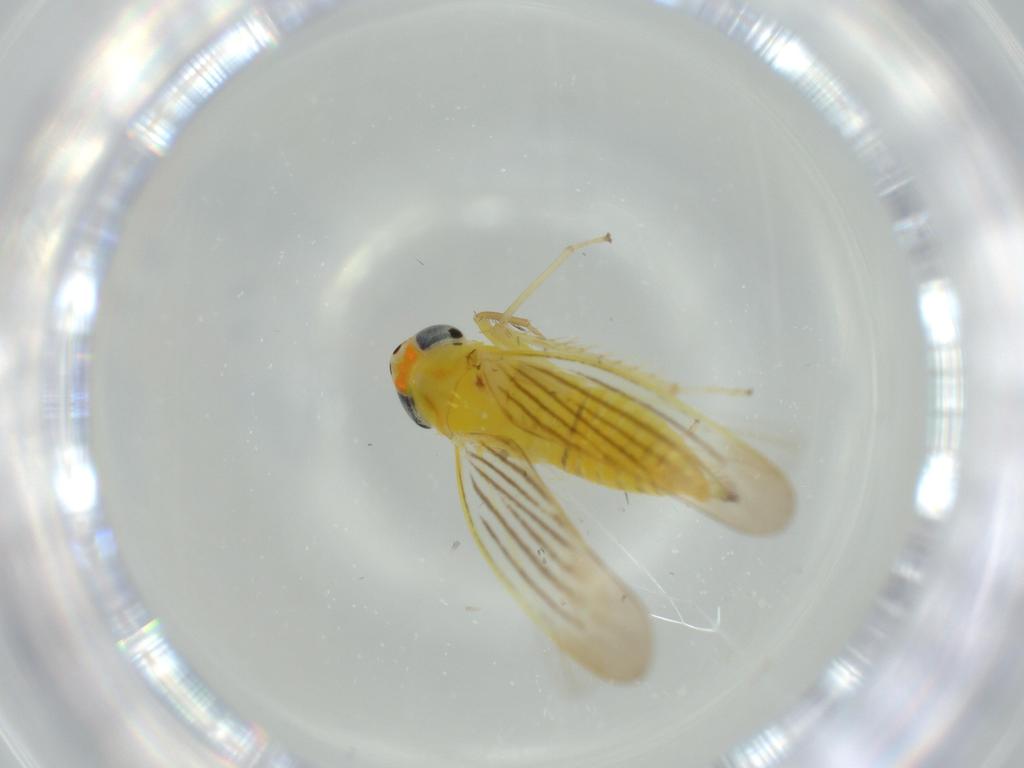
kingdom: Animalia
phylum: Arthropoda
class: Insecta
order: Hemiptera
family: Cicadellidae
